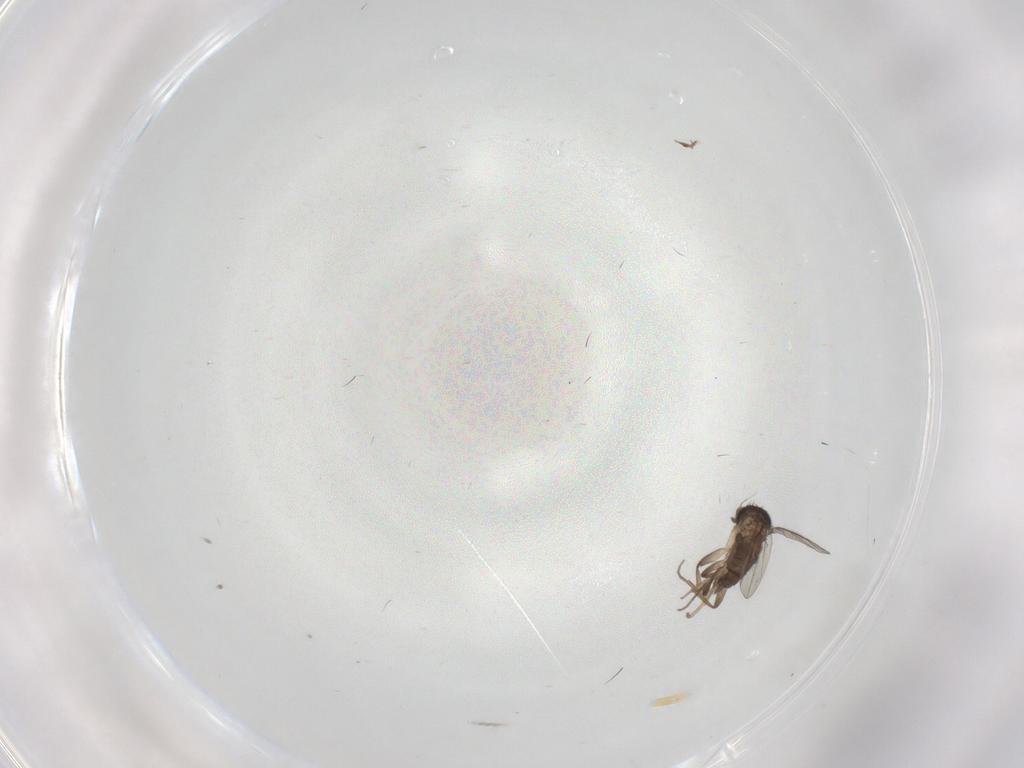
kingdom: Animalia
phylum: Arthropoda
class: Insecta
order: Diptera
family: Phoridae
